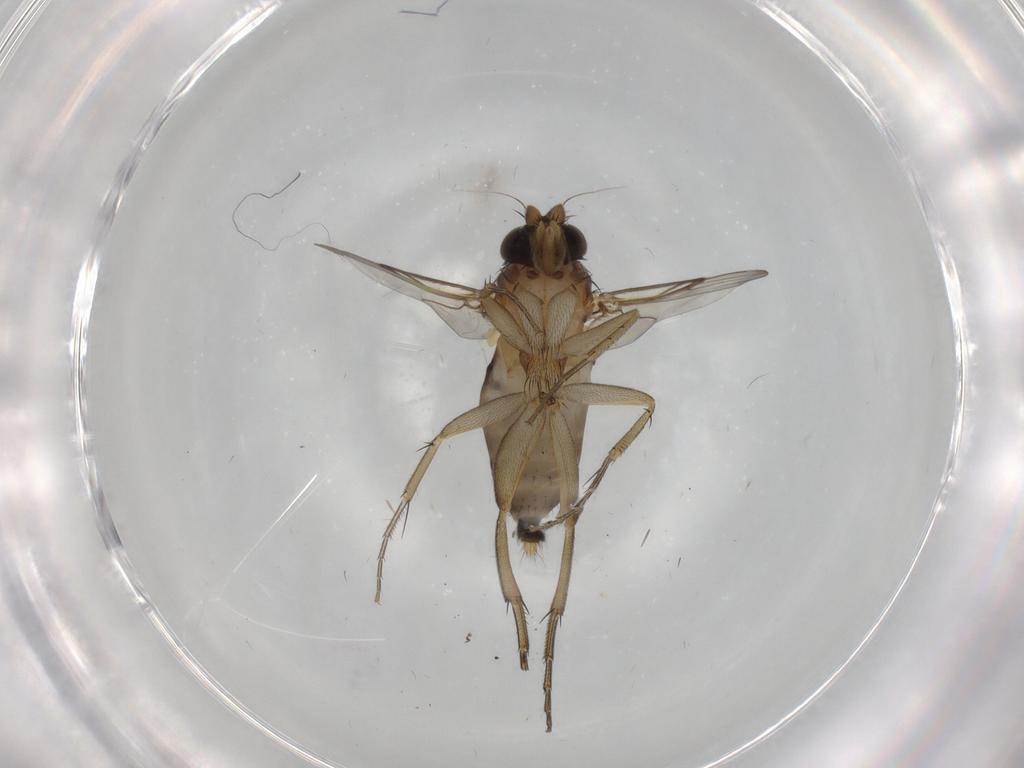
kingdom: Animalia
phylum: Arthropoda
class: Insecta
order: Diptera
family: Phoridae
